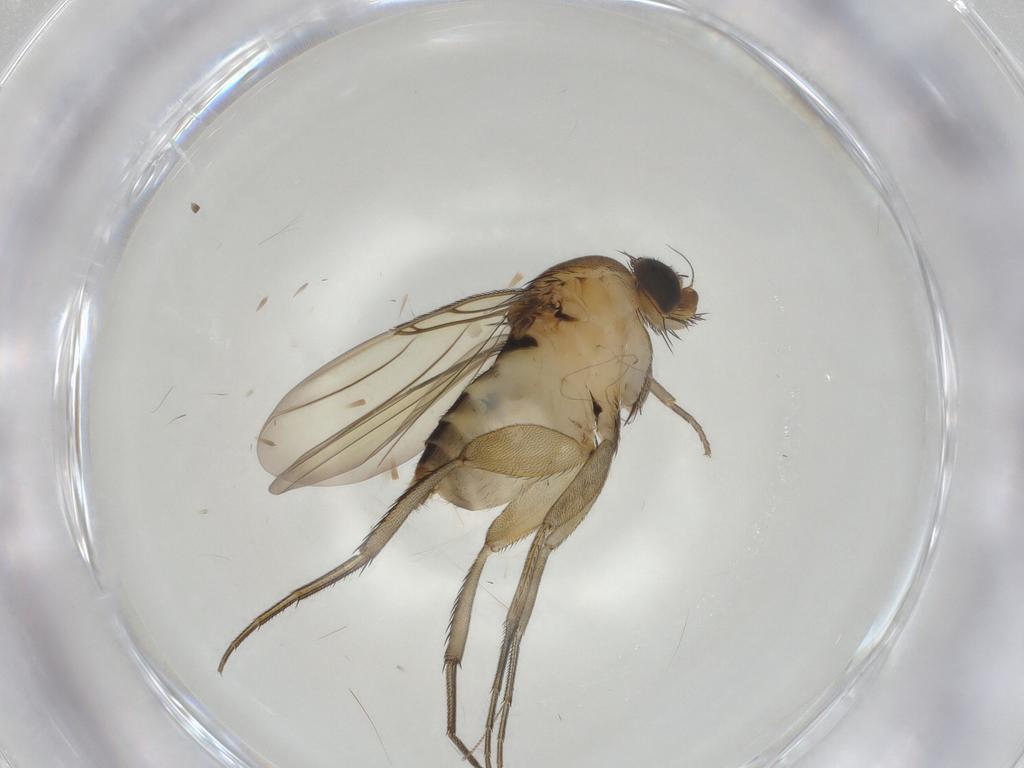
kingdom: Animalia
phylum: Arthropoda
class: Insecta
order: Diptera
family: Phoridae
